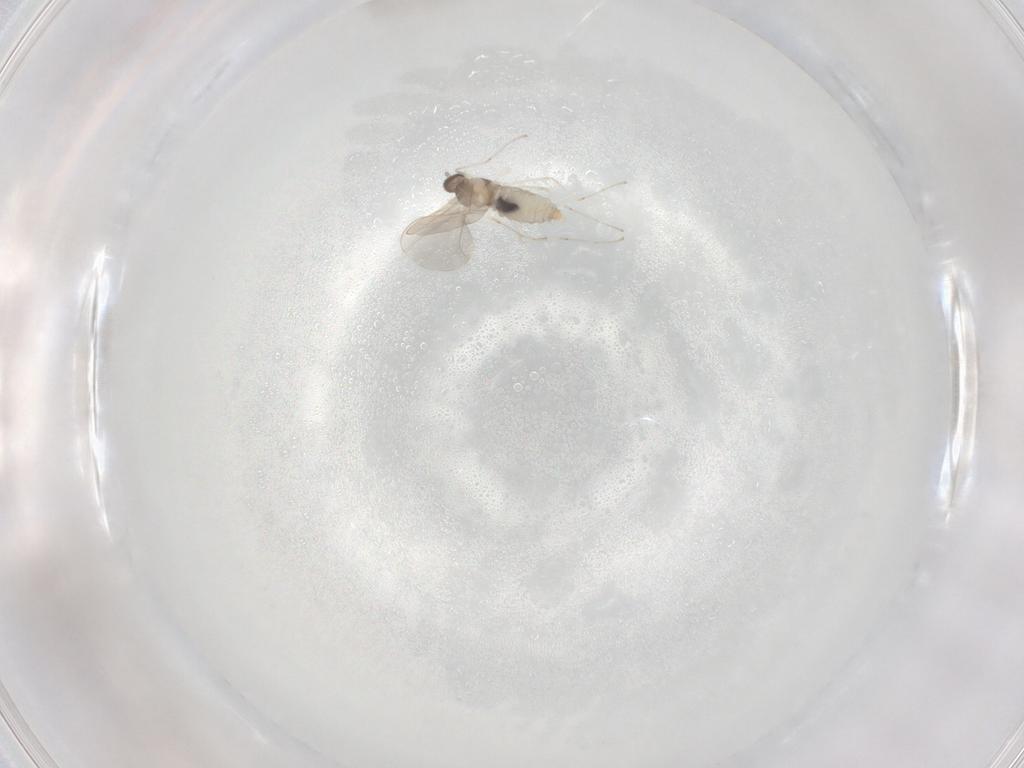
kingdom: Animalia
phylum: Arthropoda
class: Insecta
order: Diptera
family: Cecidomyiidae
